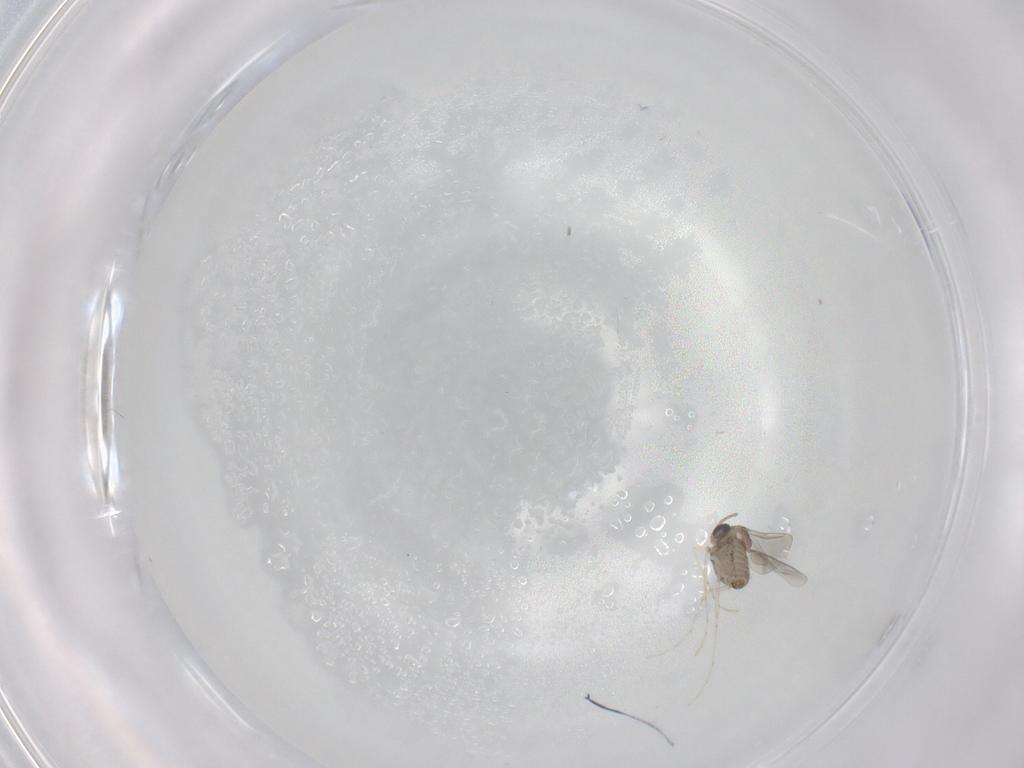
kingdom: Animalia
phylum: Arthropoda
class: Insecta
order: Diptera
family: Cecidomyiidae
